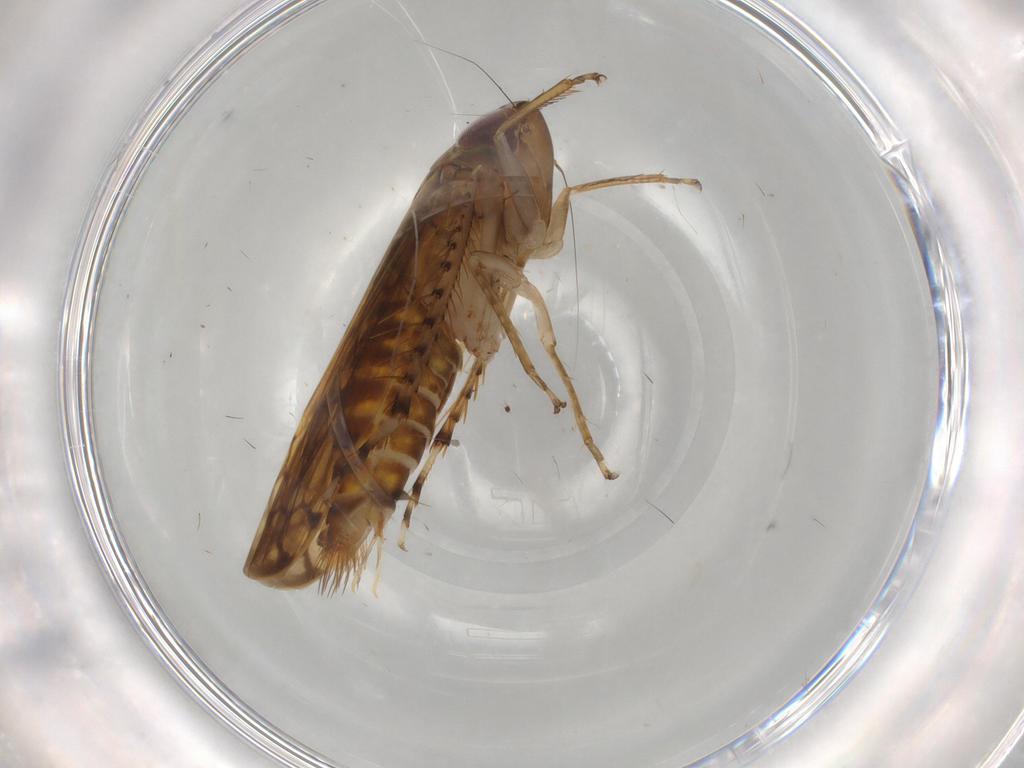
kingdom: Animalia
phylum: Arthropoda
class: Insecta
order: Hemiptera
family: Cicadellidae
